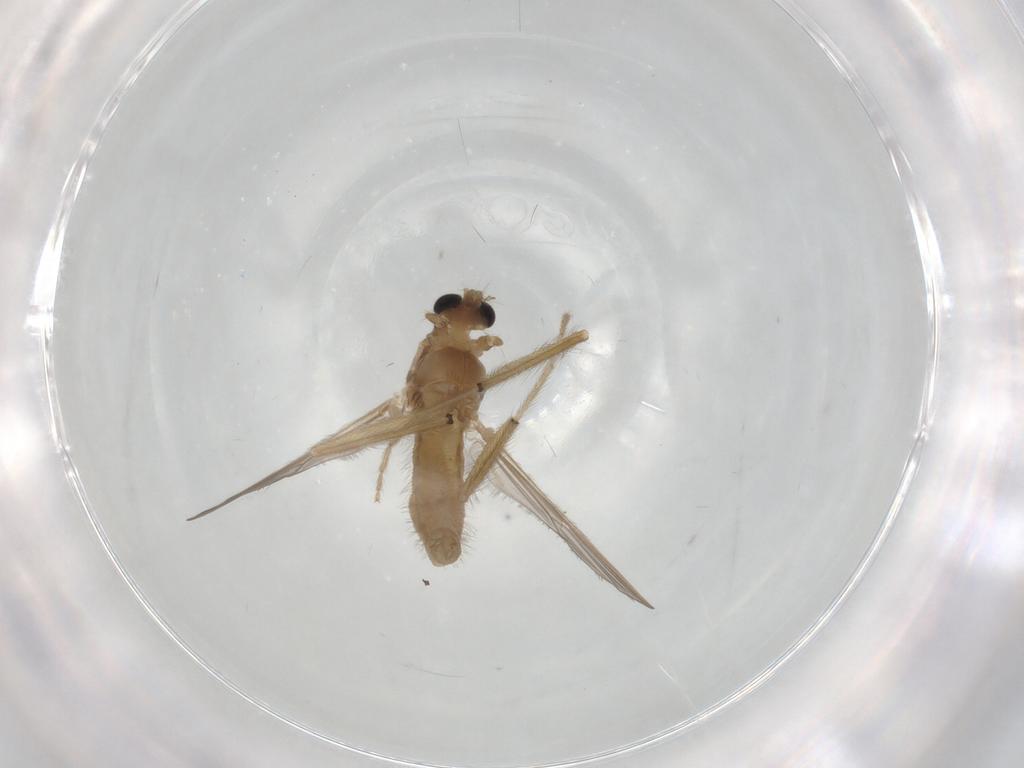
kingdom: Animalia
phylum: Arthropoda
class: Insecta
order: Diptera
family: Chironomidae
